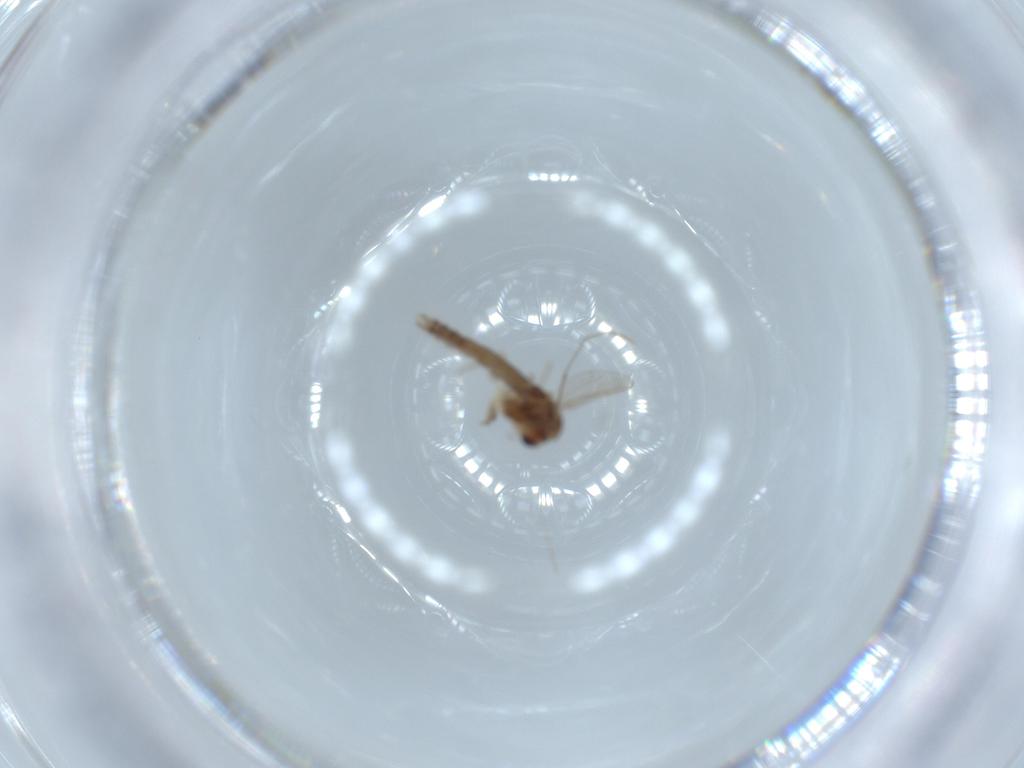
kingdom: Animalia
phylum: Arthropoda
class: Insecta
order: Diptera
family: Chironomidae
